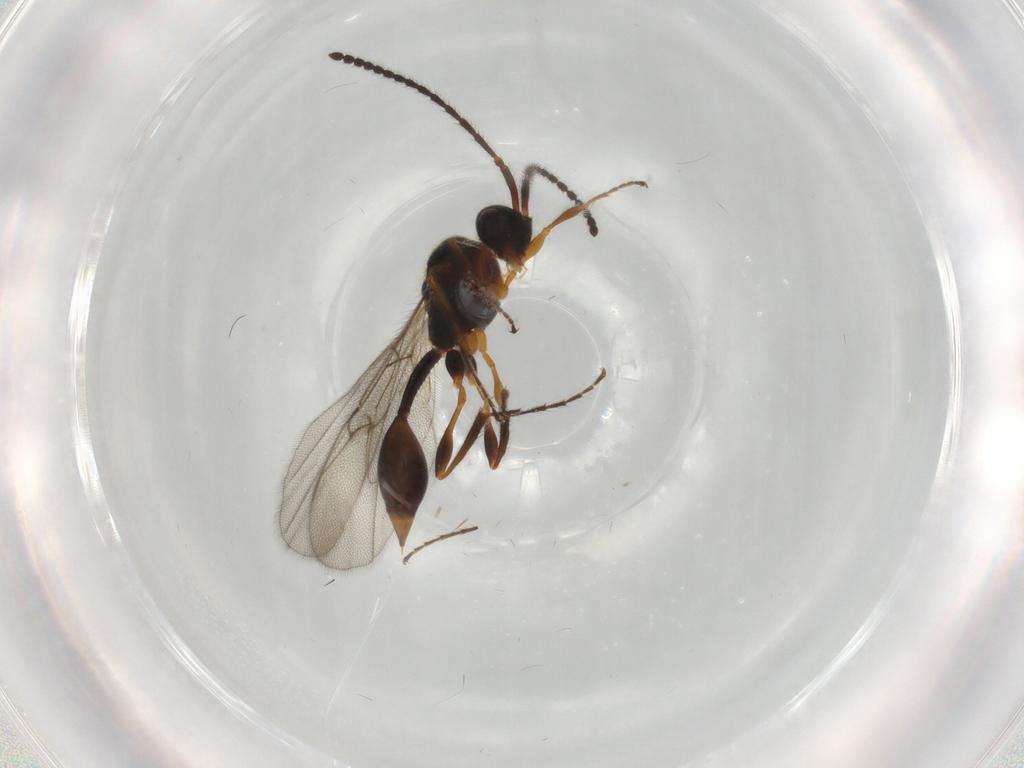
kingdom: Animalia
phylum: Arthropoda
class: Insecta
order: Hymenoptera
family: Diapriidae
